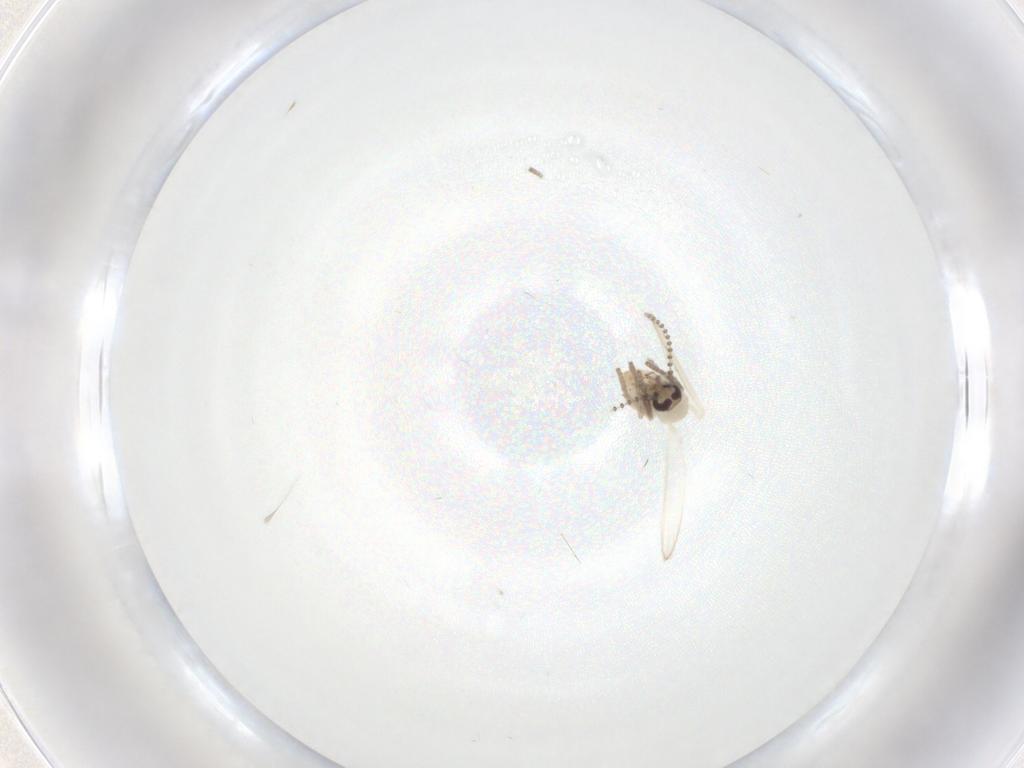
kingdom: Animalia
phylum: Arthropoda
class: Insecta
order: Diptera
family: Psychodidae
